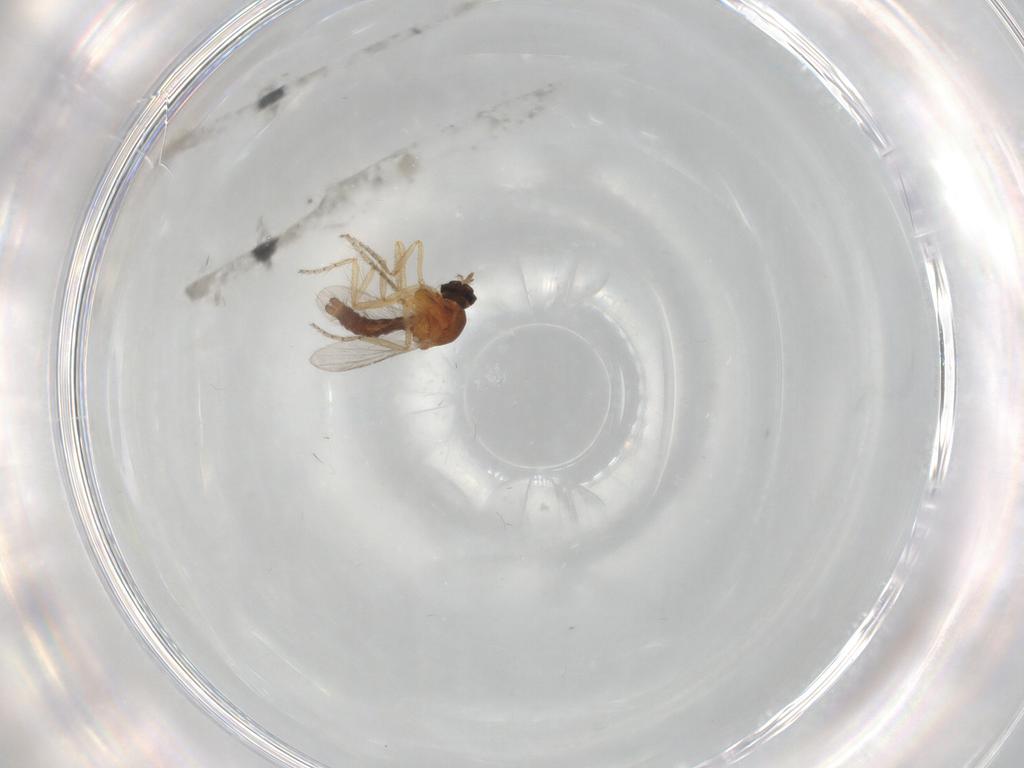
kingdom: Animalia
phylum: Arthropoda
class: Insecta
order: Diptera
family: Ceratopogonidae
